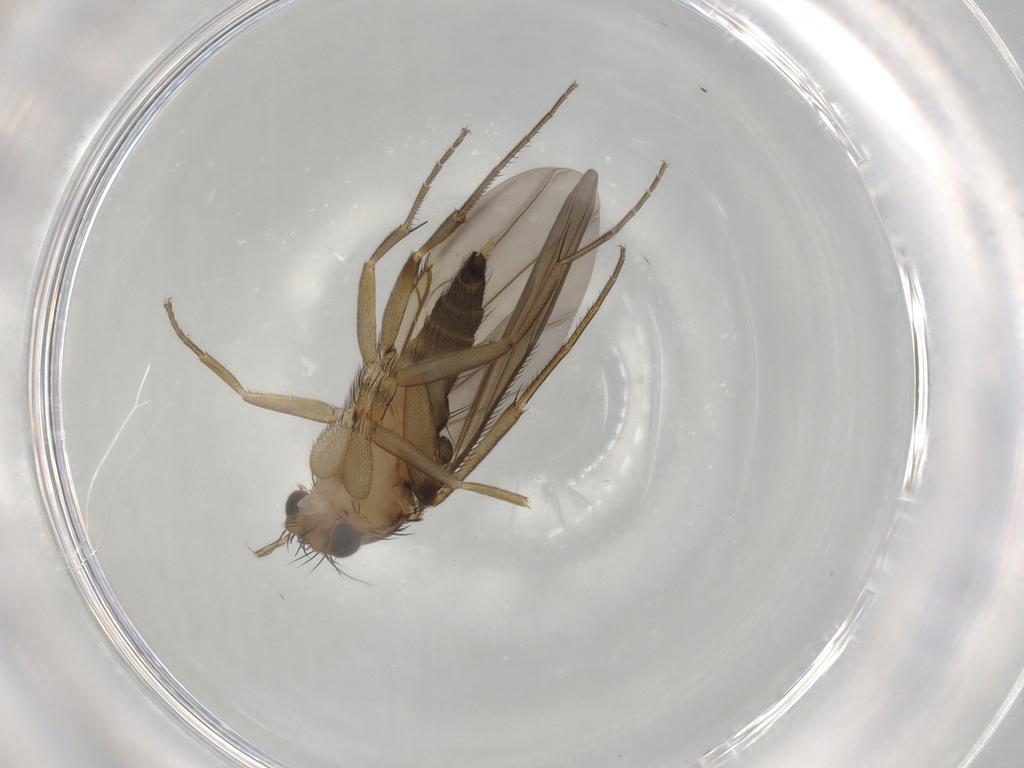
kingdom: Animalia
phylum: Arthropoda
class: Insecta
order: Diptera
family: Phoridae
